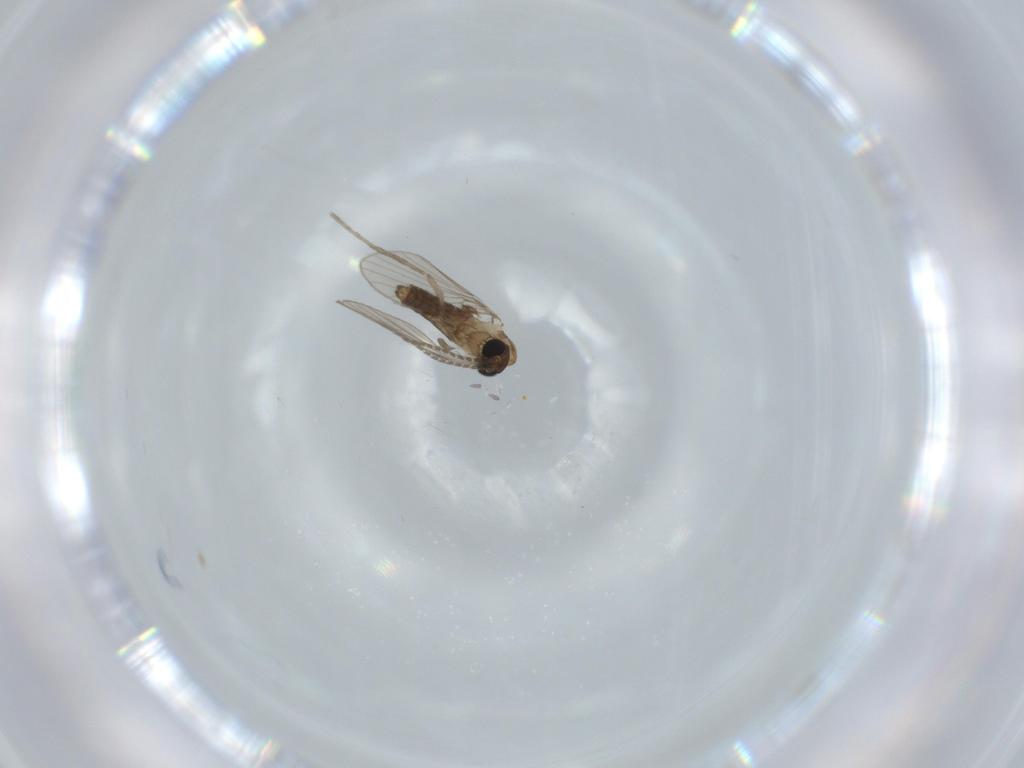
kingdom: Animalia
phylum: Arthropoda
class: Insecta
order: Diptera
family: Psychodidae
